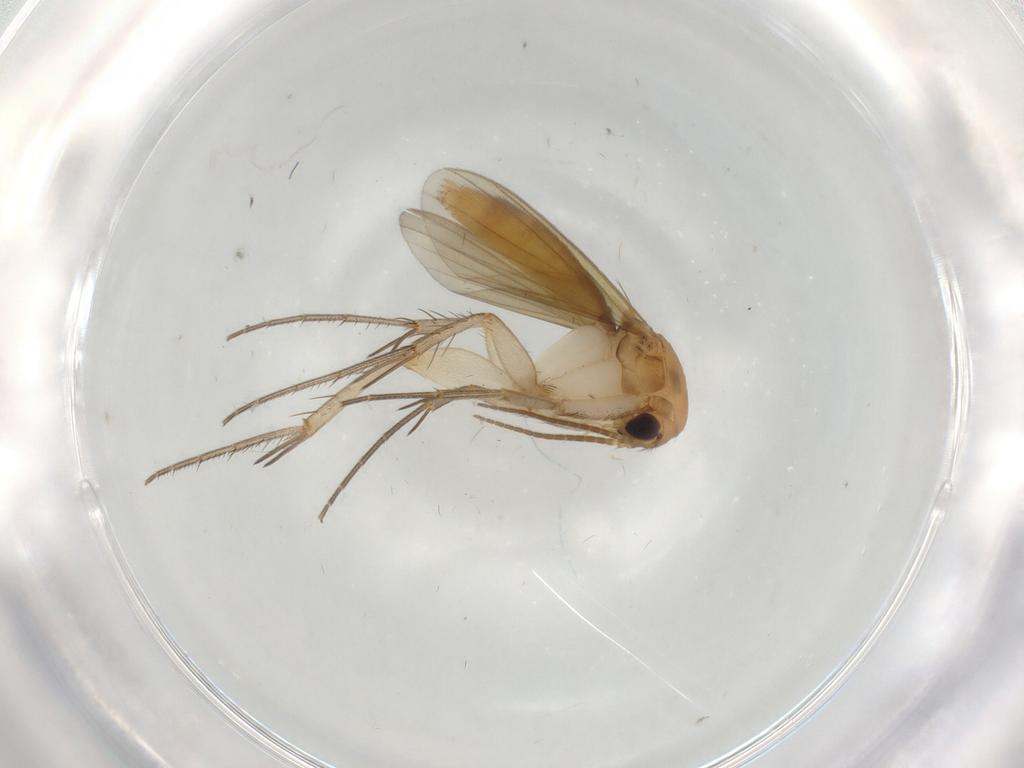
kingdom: Animalia
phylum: Arthropoda
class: Insecta
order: Diptera
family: Mycetophilidae
